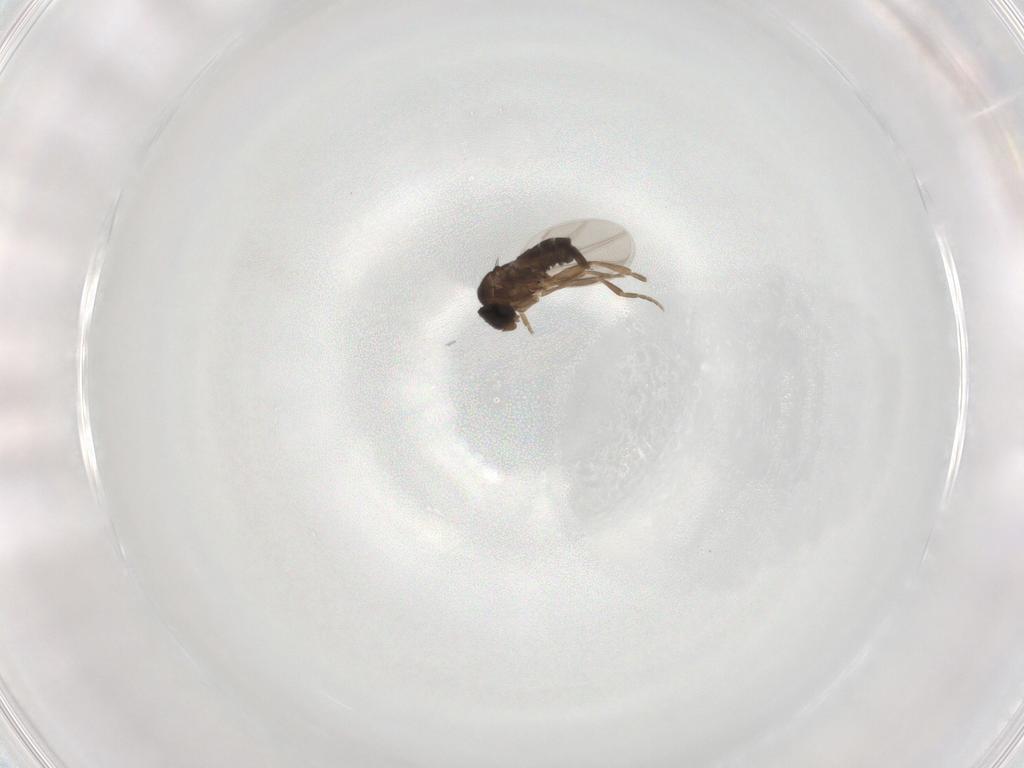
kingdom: Animalia
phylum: Arthropoda
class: Insecta
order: Diptera
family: Phoridae
